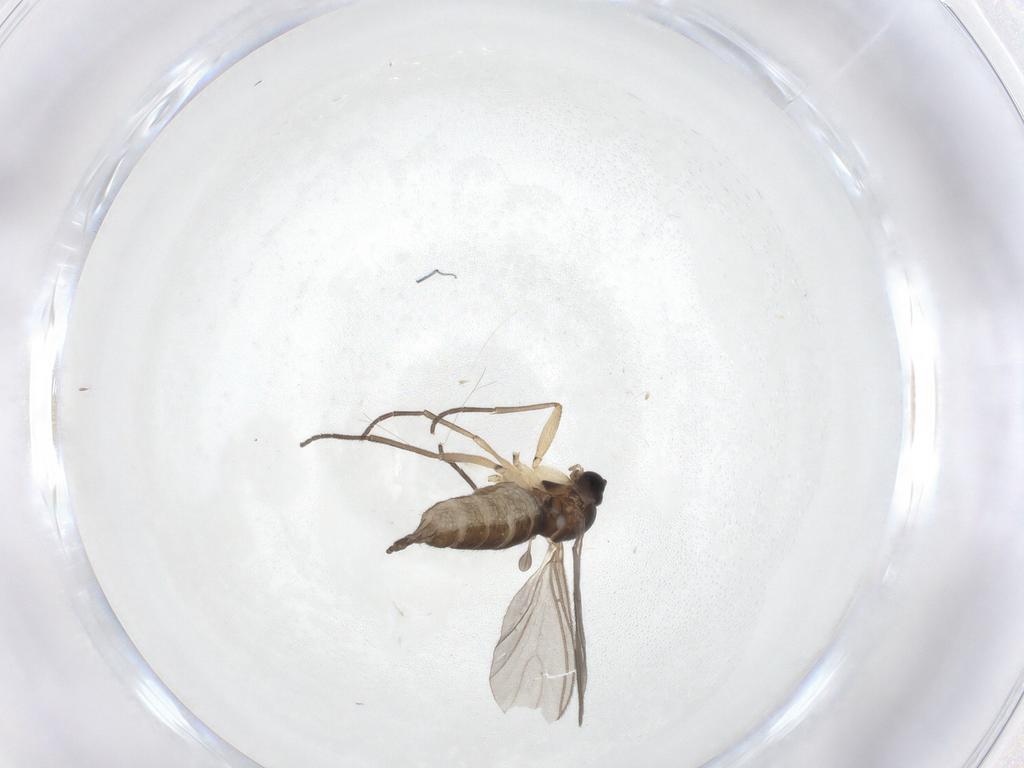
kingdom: Animalia
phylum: Arthropoda
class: Insecta
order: Diptera
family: Sciaridae
